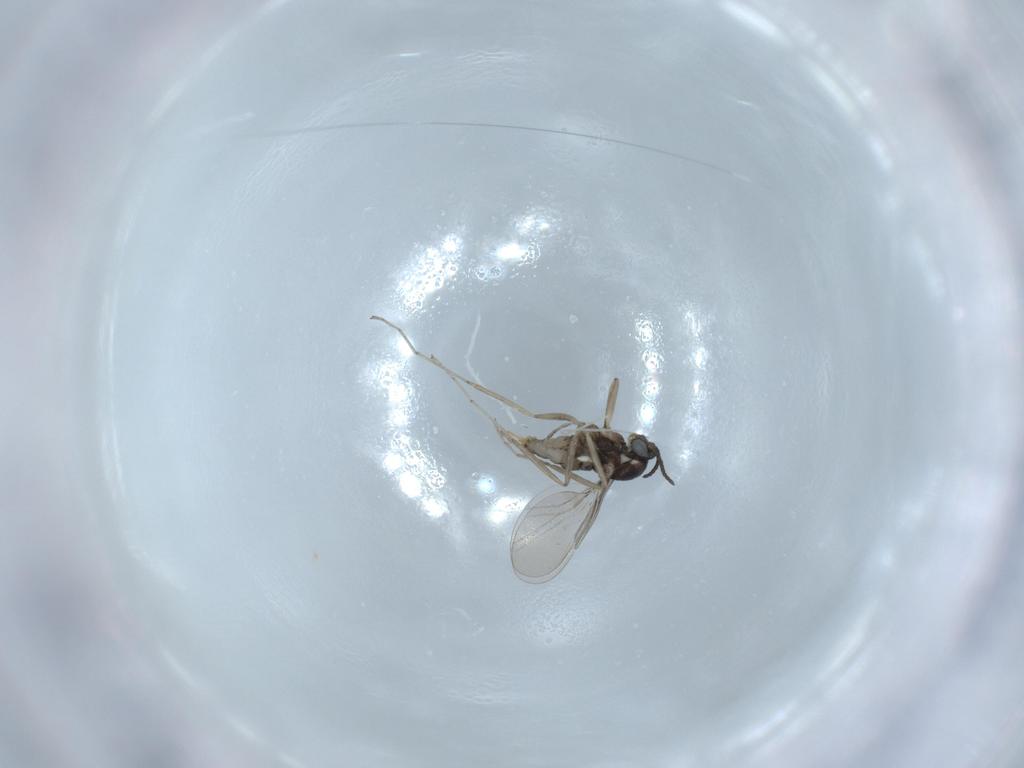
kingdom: Animalia
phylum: Arthropoda
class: Insecta
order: Diptera
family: Cecidomyiidae
